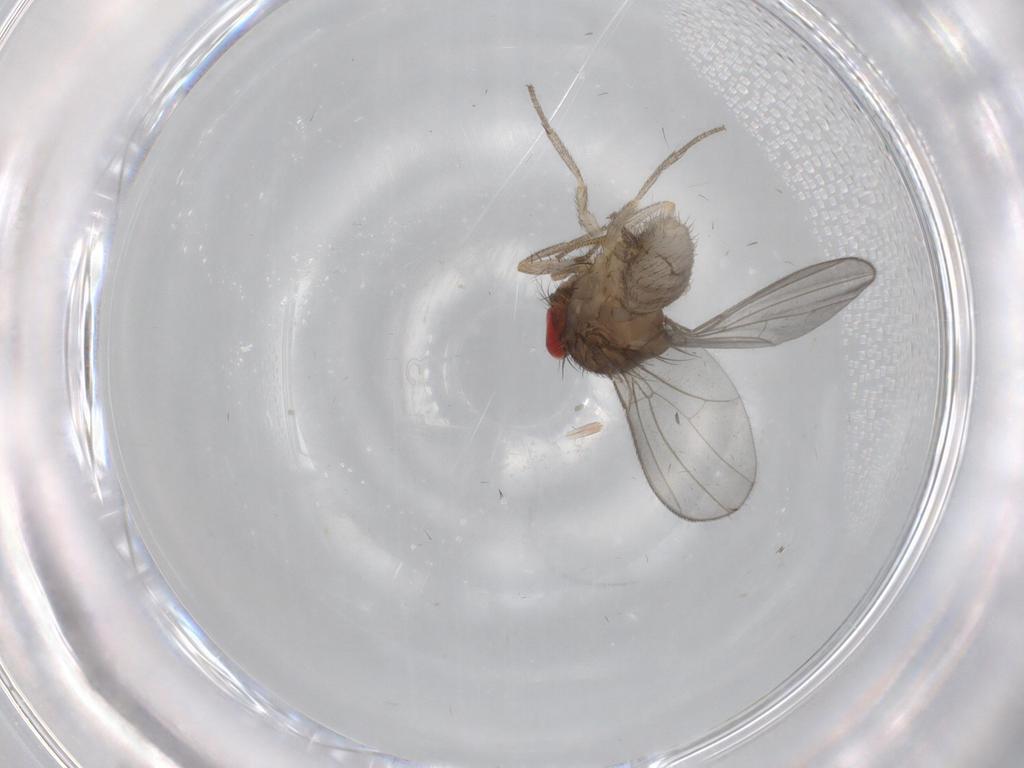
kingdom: Animalia
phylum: Arthropoda
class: Insecta
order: Diptera
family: Drosophilidae
